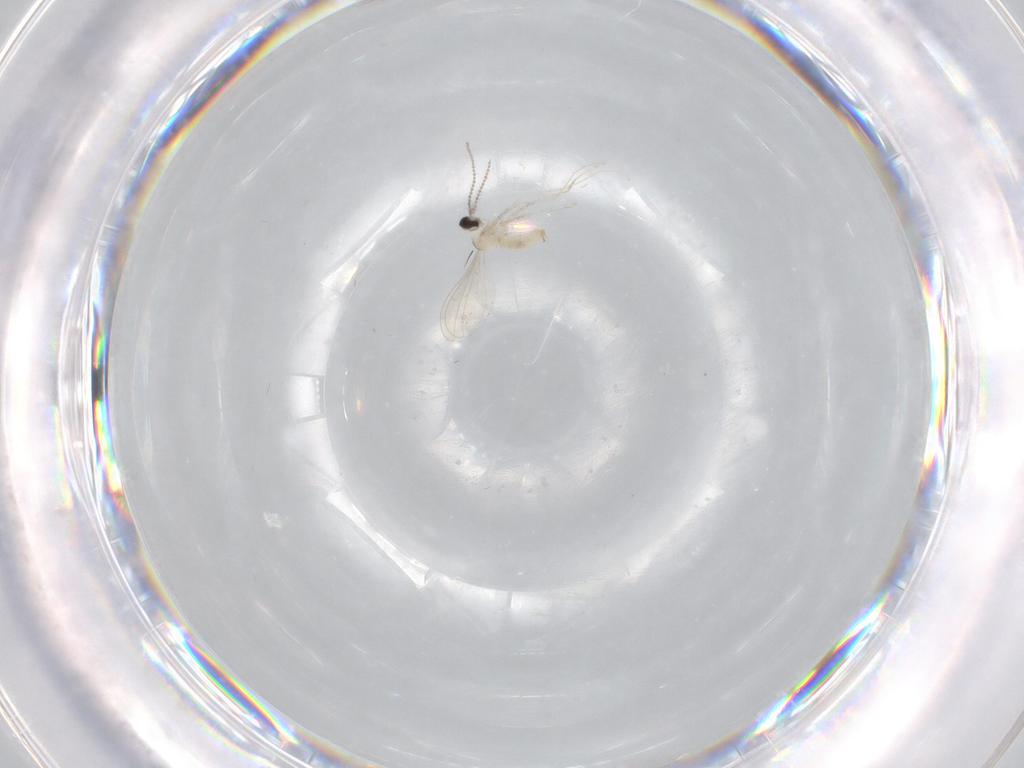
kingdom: Animalia
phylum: Arthropoda
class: Insecta
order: Diptera
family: Cecidomyiidae
